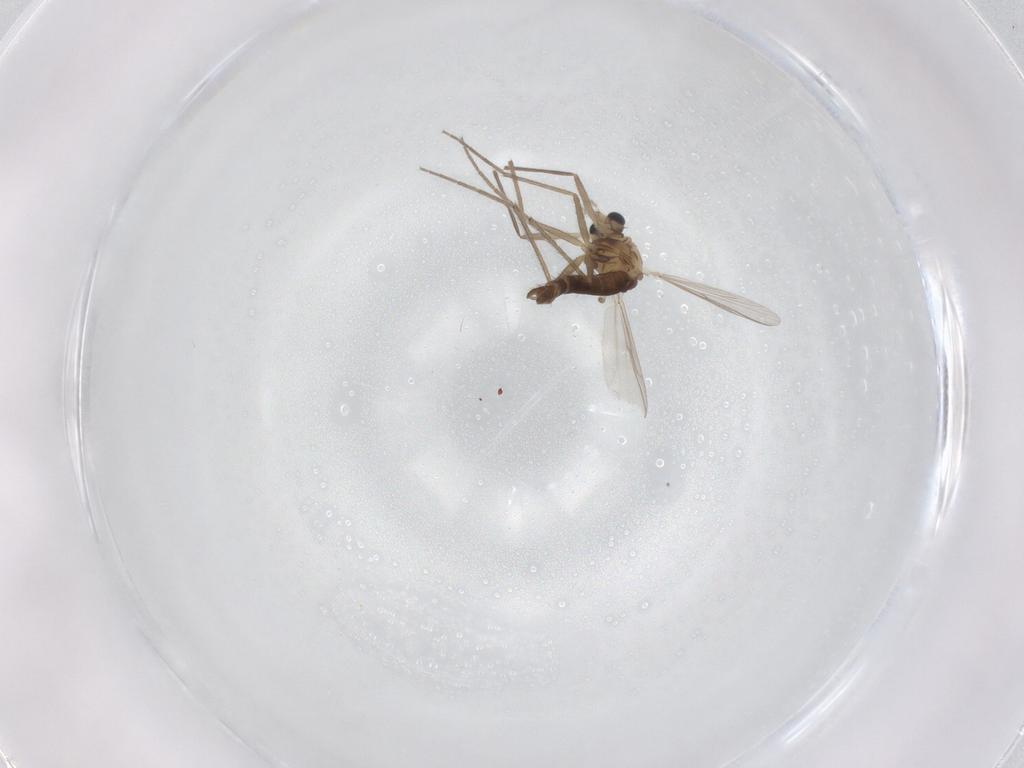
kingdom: Animalia
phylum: Arthropoda
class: Insecta
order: Diptera
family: Chironomidae
